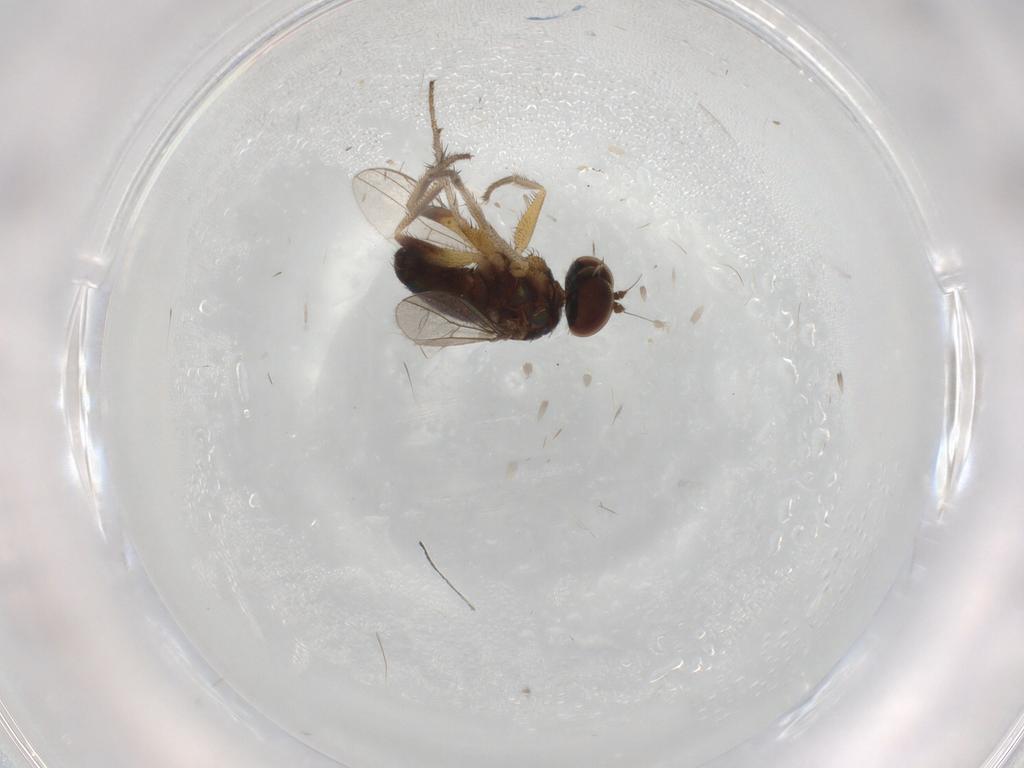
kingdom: Animalia
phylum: Arthropoda
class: Insecta
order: Diptera
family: Dolichopodidae
